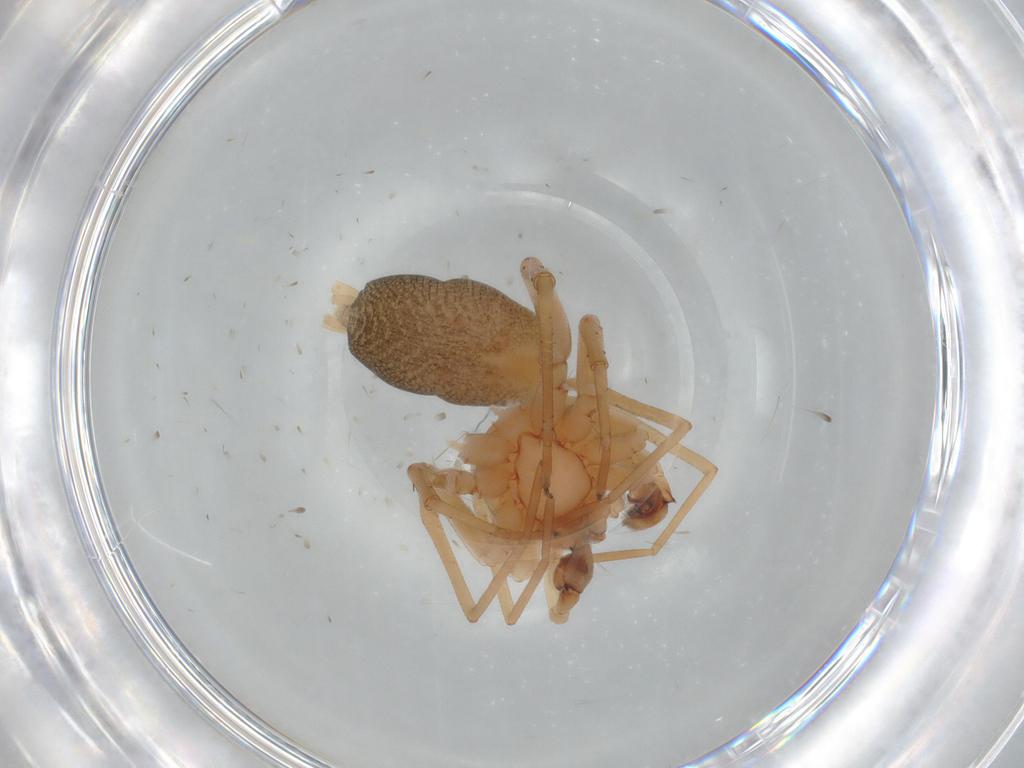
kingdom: Animalia
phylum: Arthropoda
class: Arachnida
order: Araneae
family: Corinnidae
